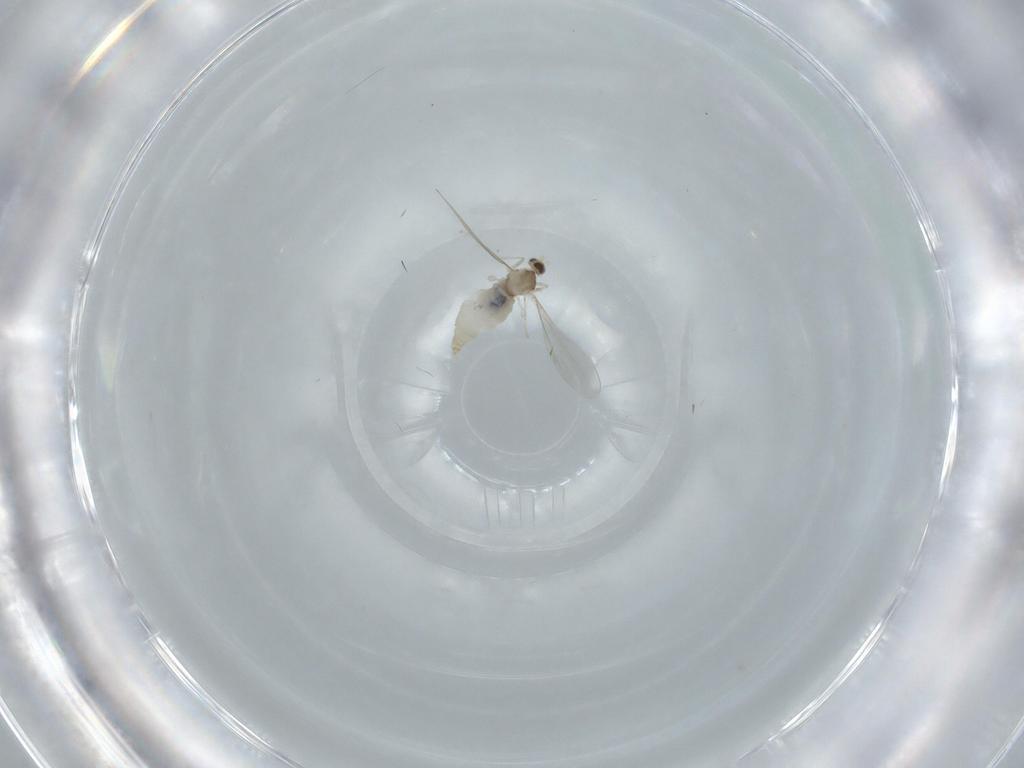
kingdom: Animalia
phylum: Arthropoda
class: Insecta
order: Diptera
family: Cecidomyiidae
